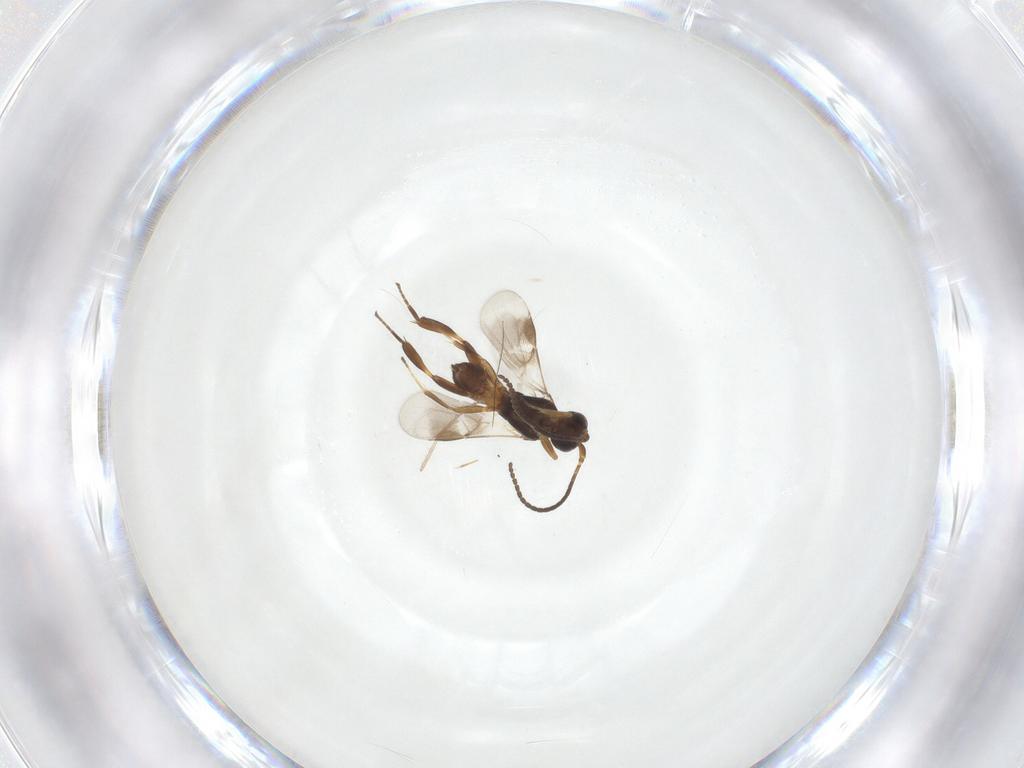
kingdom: Animalia
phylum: Arthropoda
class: Insecta
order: Hymenoptera
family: Braconidae
